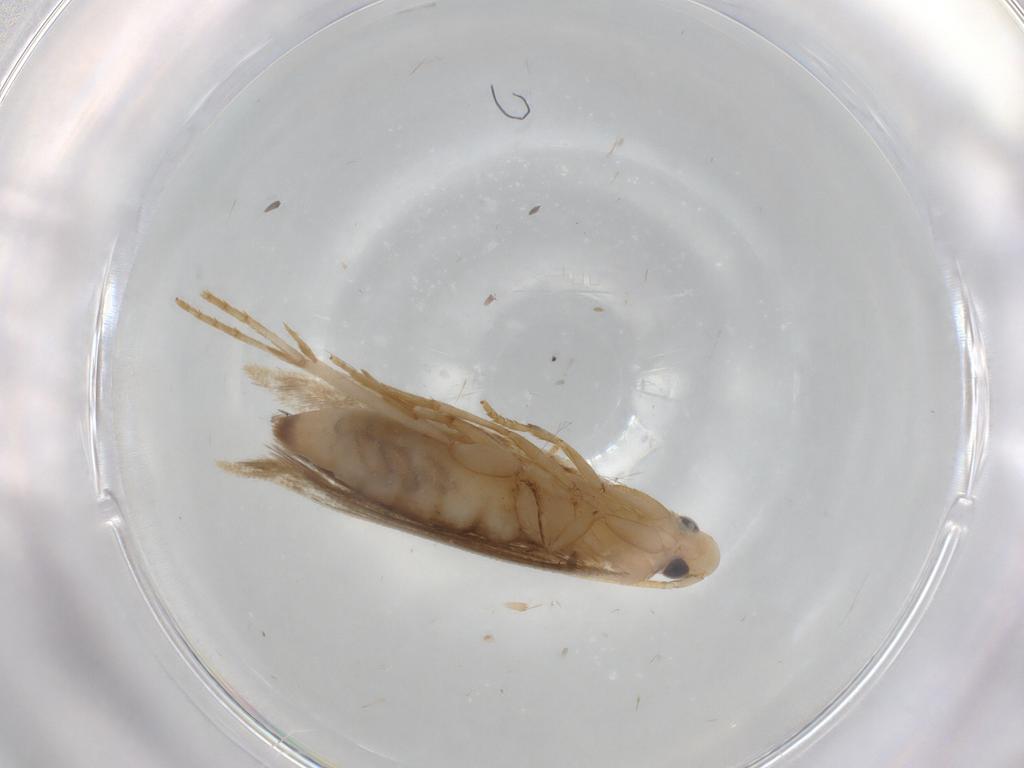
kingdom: Animalia
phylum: Arthropoda
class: Insecta
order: Lepidoptera
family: Tineidae
